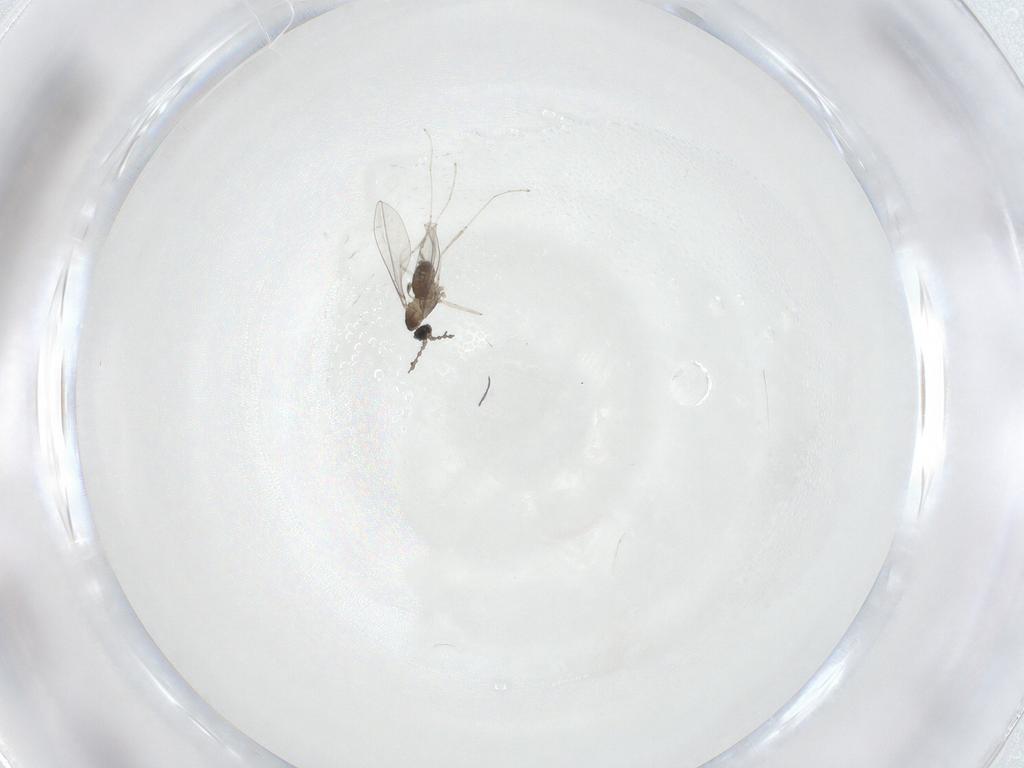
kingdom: Animalia
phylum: Arthropoda
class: Insecta
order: Diptera
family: Cecidomyiidae
